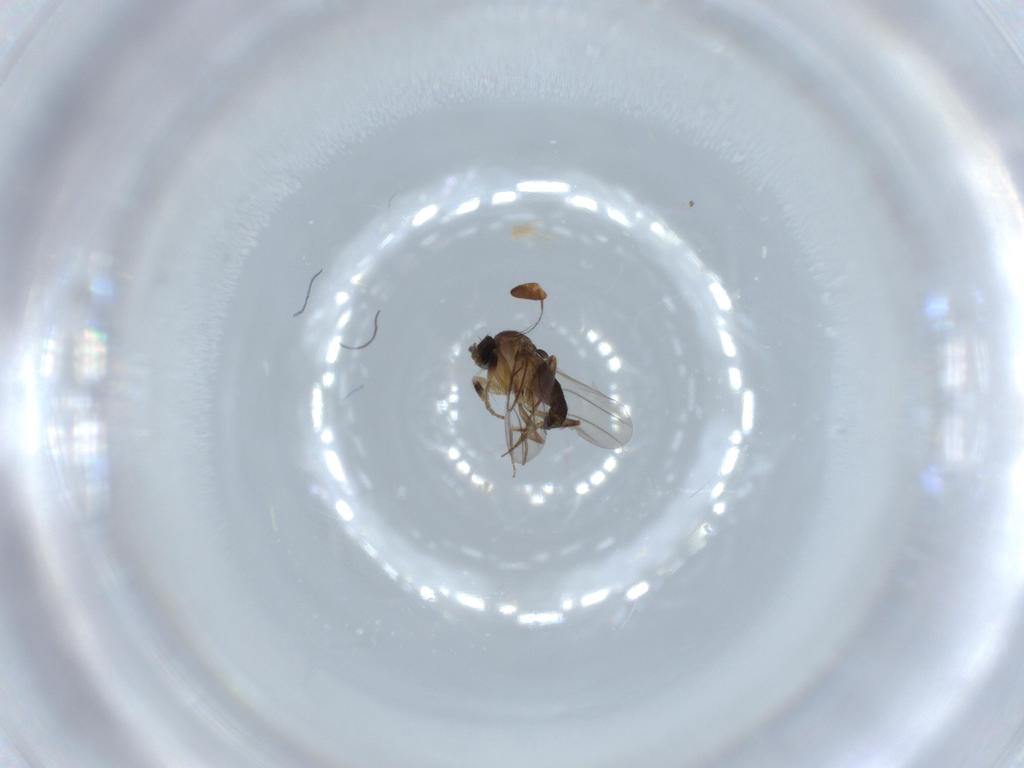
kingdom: Animalia
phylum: Arthropoda
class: Insecta
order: Diptera
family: Phoridae
